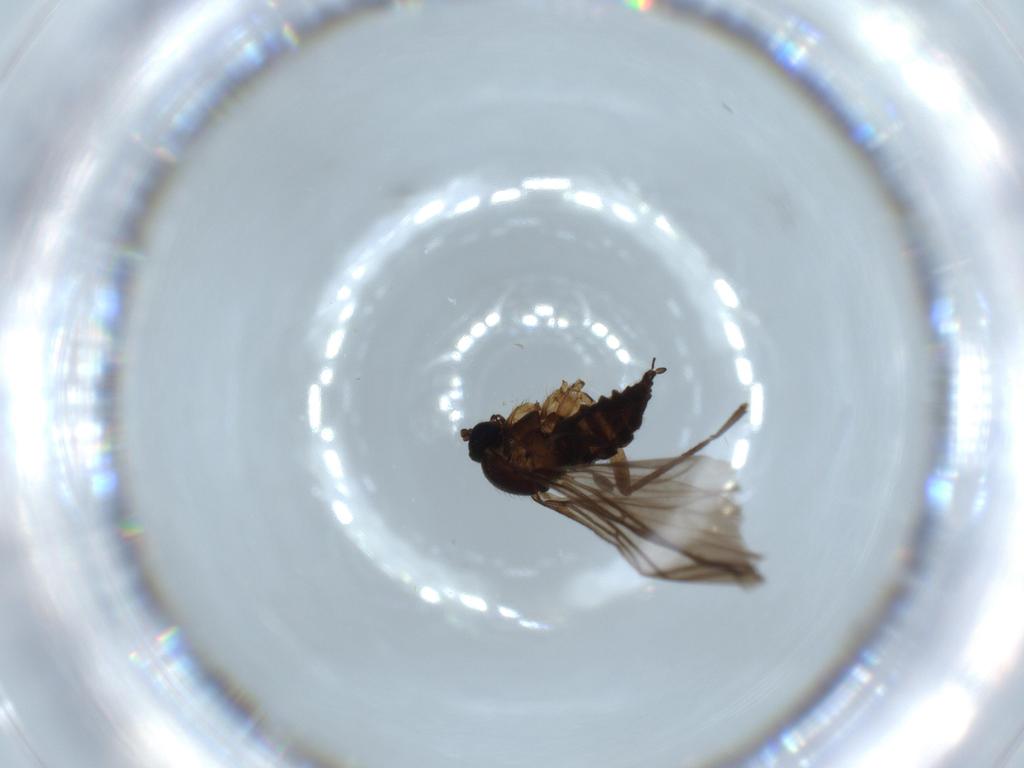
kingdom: Animalia
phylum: Arthropoda
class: Insecta
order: Diptera
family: Sciaridae
